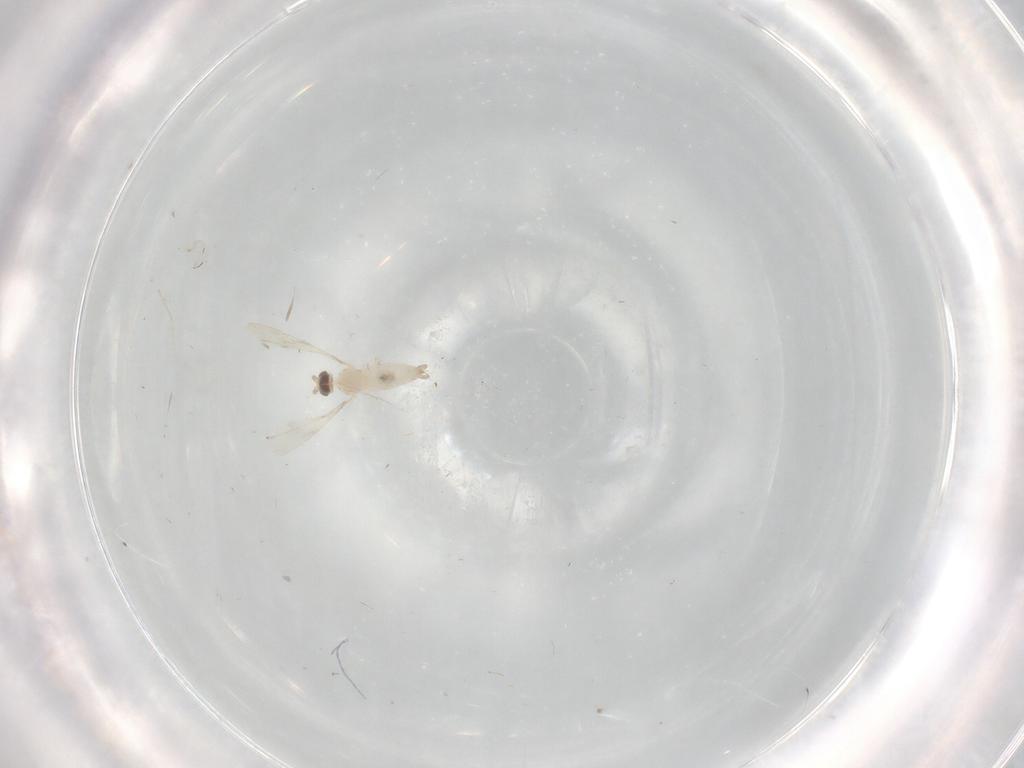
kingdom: Animalia
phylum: Arthropoda
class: Insecta
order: Diptera
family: Cecidomyiidae
